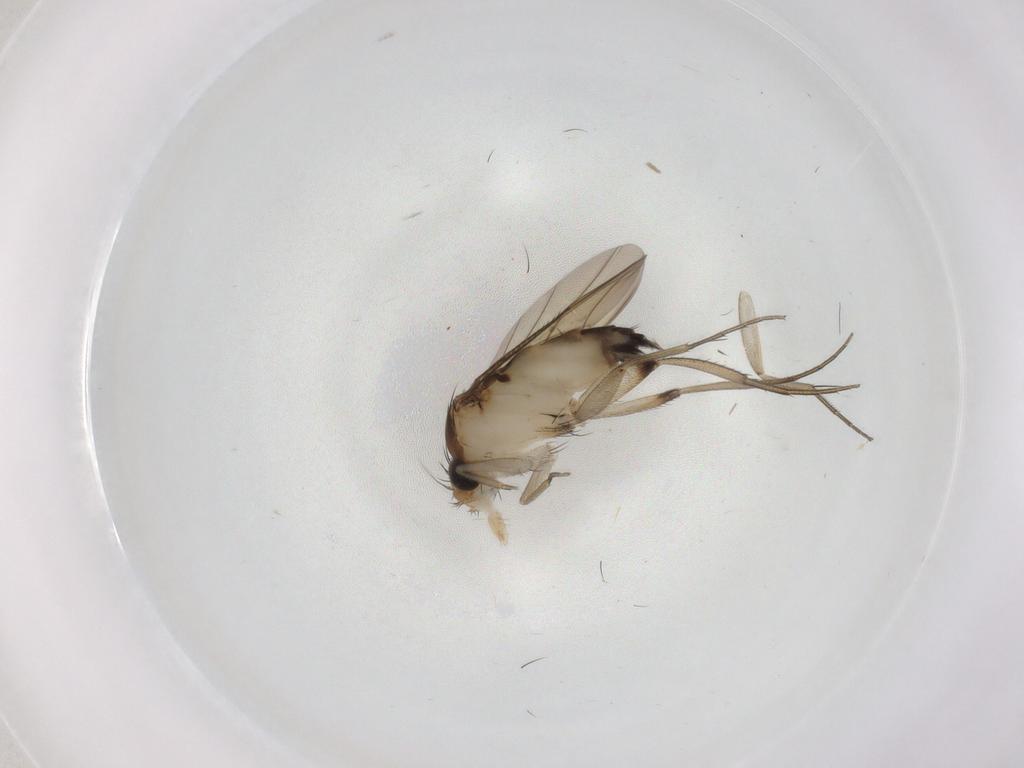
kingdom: Animalia
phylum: Arthropoda
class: Insecta
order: Diptera
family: Phoridae
